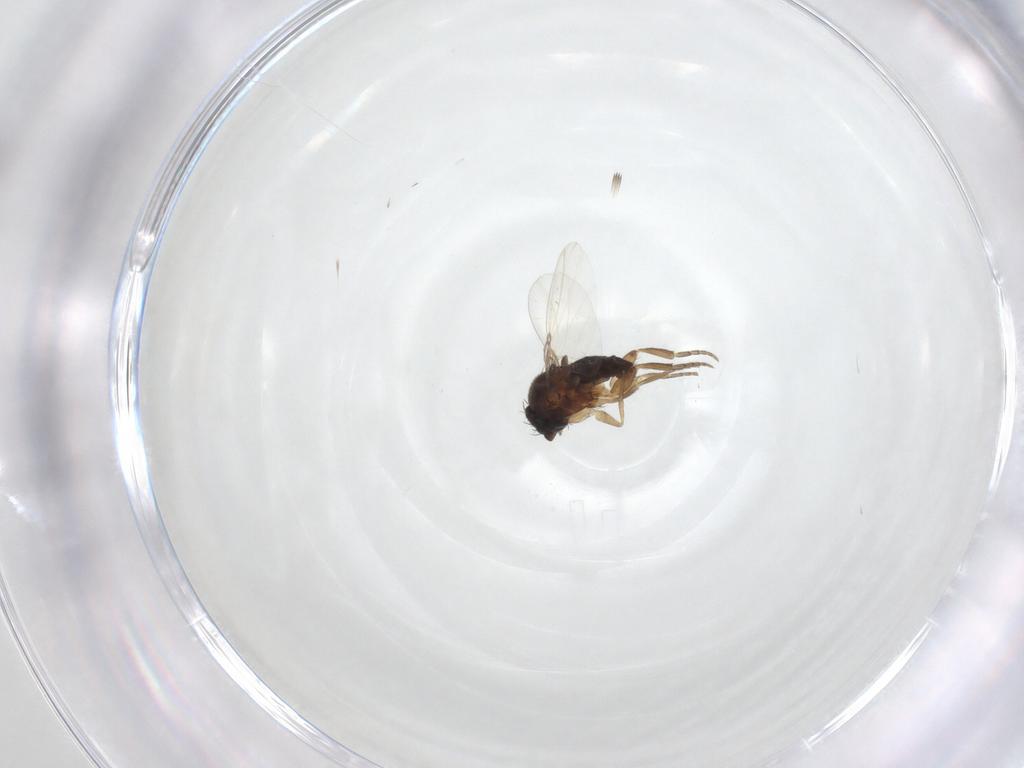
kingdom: Animalia
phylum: Arthropoda
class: Insecta
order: Diptera
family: Phoridae
